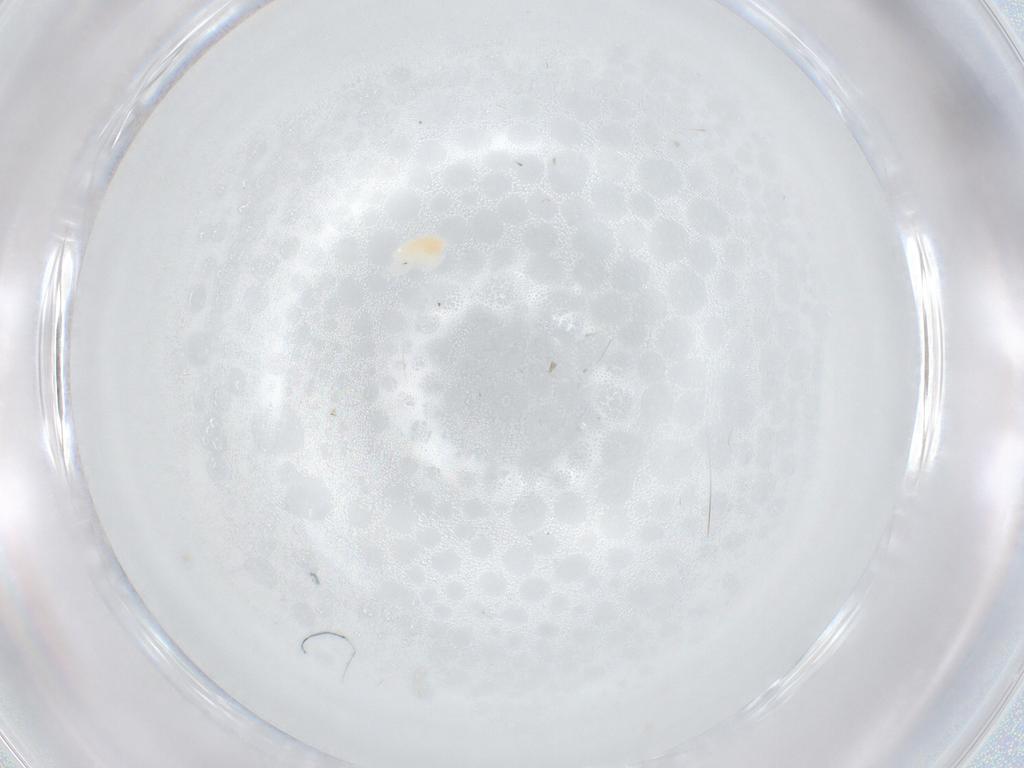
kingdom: Animalia
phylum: Arthropoda
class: Arachnida
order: Trombidiformes
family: Eupodidae
